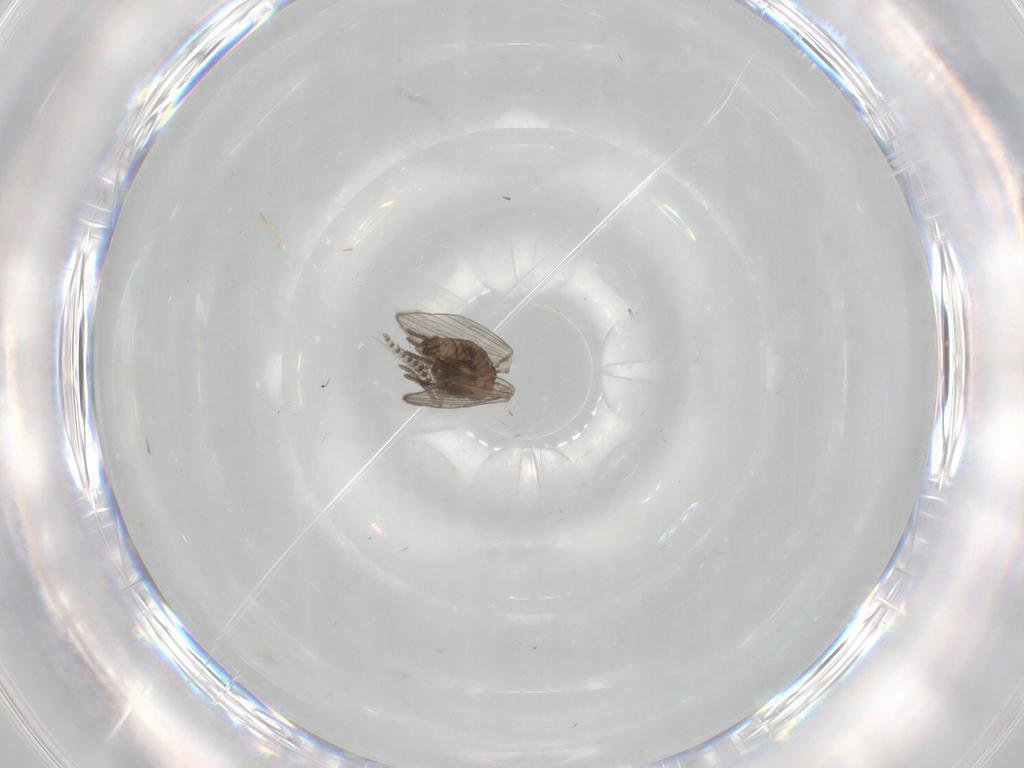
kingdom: Animalia
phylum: Arthropoda
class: Insecta
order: Diptera
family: Psychodidae
